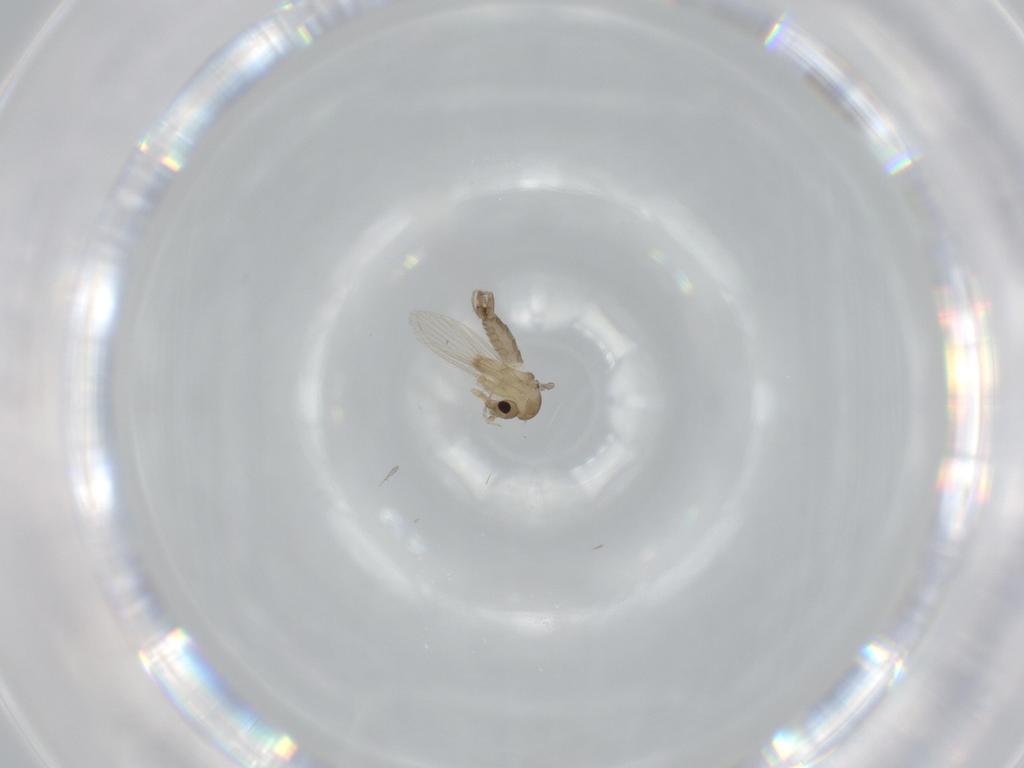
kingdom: Animalia
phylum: Arthropoda
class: Insecta
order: Diptera
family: Psychodidae
